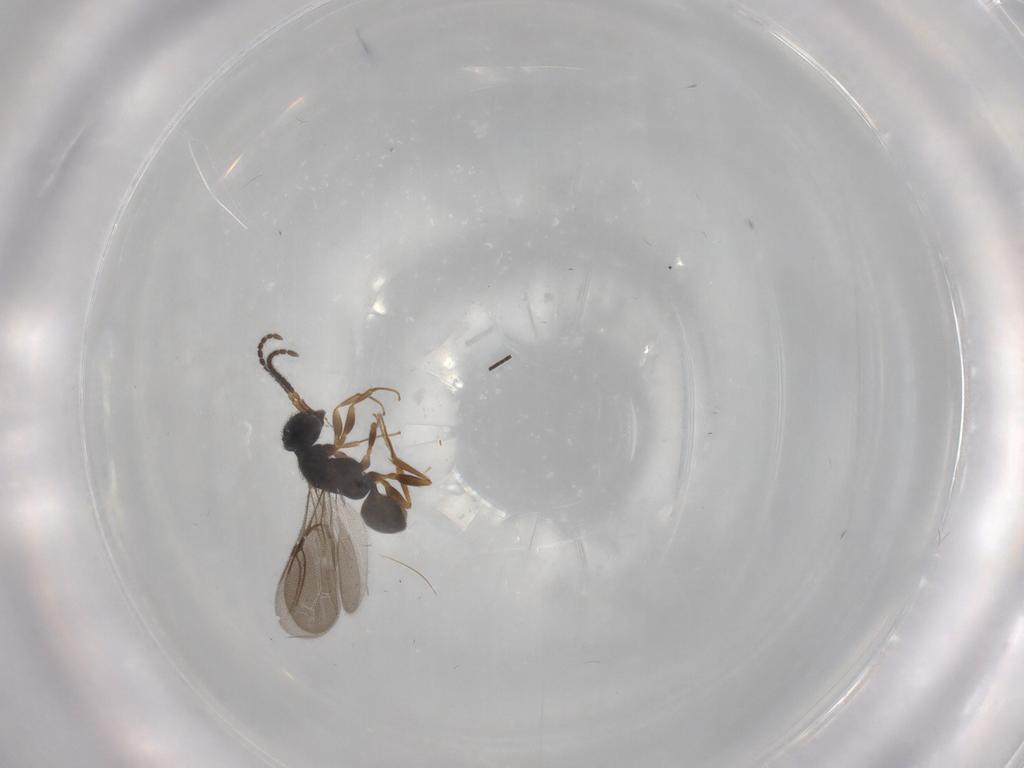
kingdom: Animalia
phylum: Arthropoda
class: Insecta
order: Hymenoptera
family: Bethylidae
